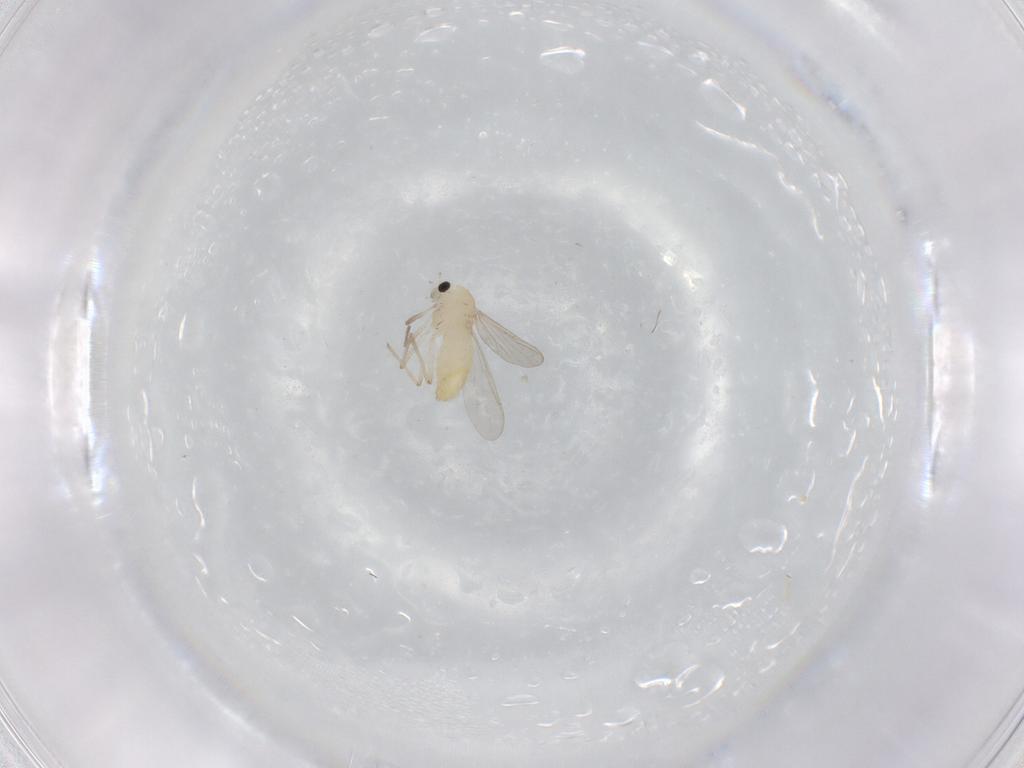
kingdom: Animalia
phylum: Arthropoda
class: Insecta
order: Diptera
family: Chironomidae
